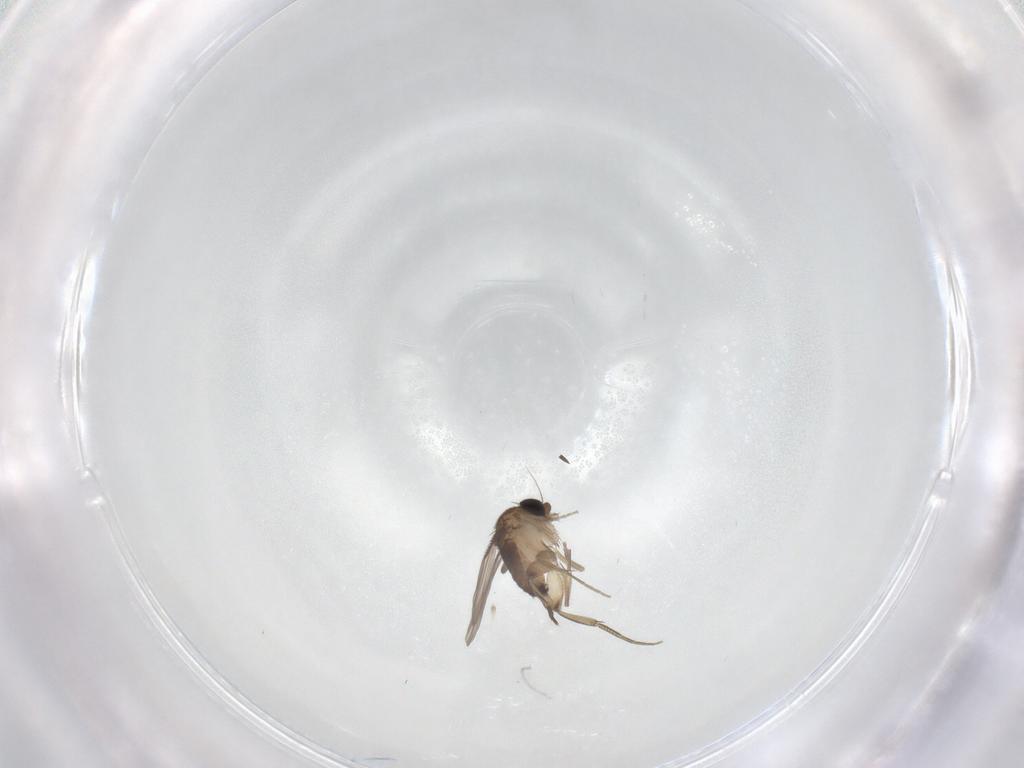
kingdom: Animalia
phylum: Arthropoda
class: Insecta
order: Diptera
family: Phoridae
